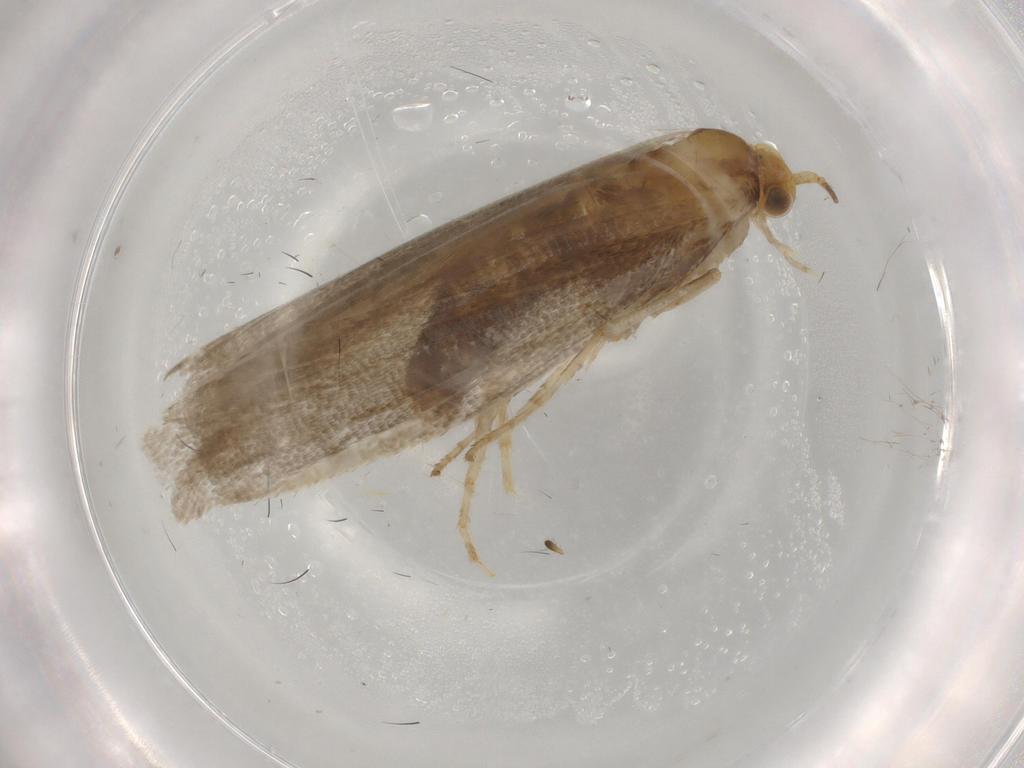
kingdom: Animalia
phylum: Arthropoda
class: Insecta
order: Lepidoptera
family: Argyresthiidae
